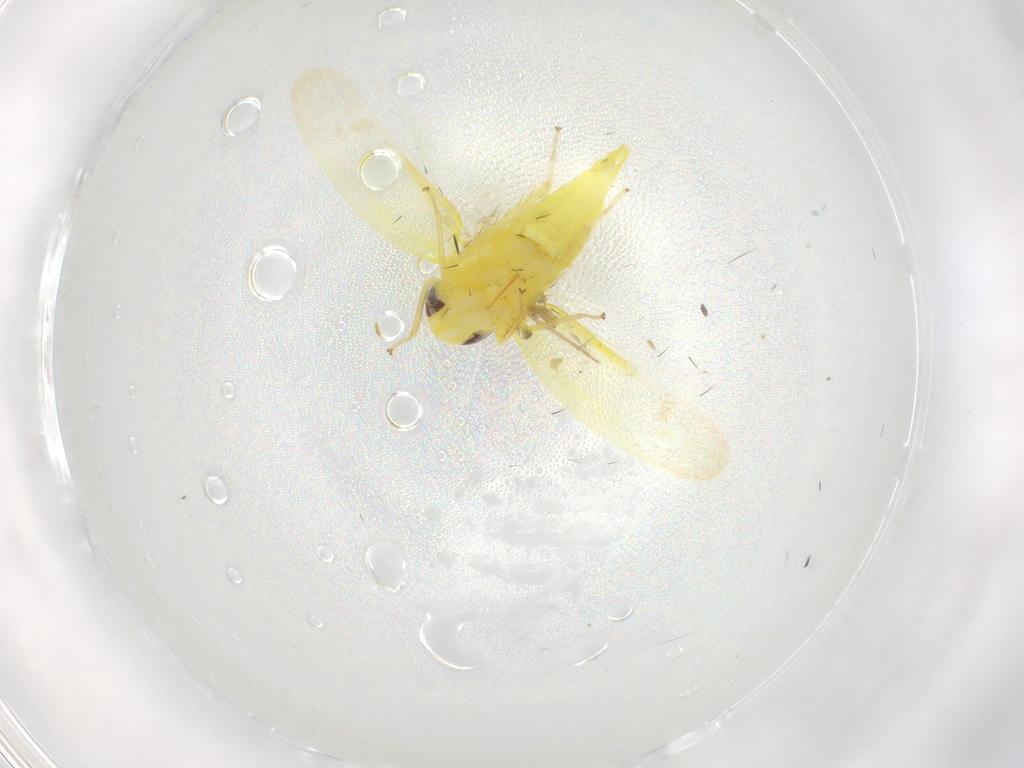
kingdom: Animalia
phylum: Arthropoda
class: Insecta
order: Hemiptera
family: Cicadellidae
